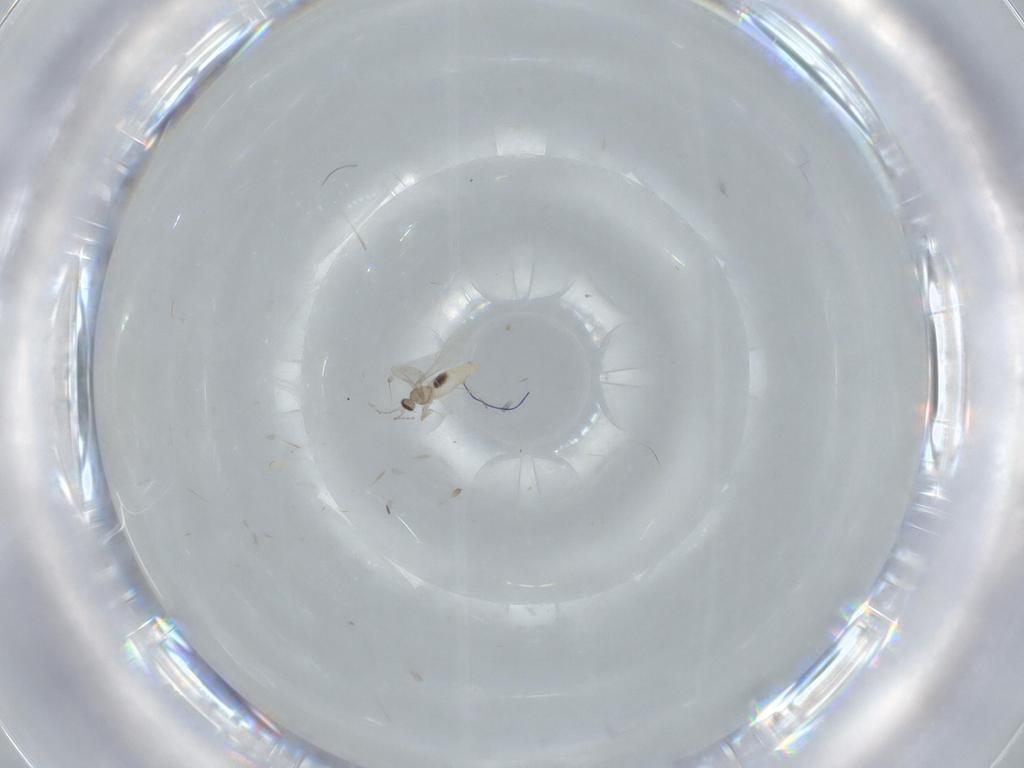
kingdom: Animalia
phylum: Arthropoda
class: Insecta
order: Diptera
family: Cecidomyiidae
